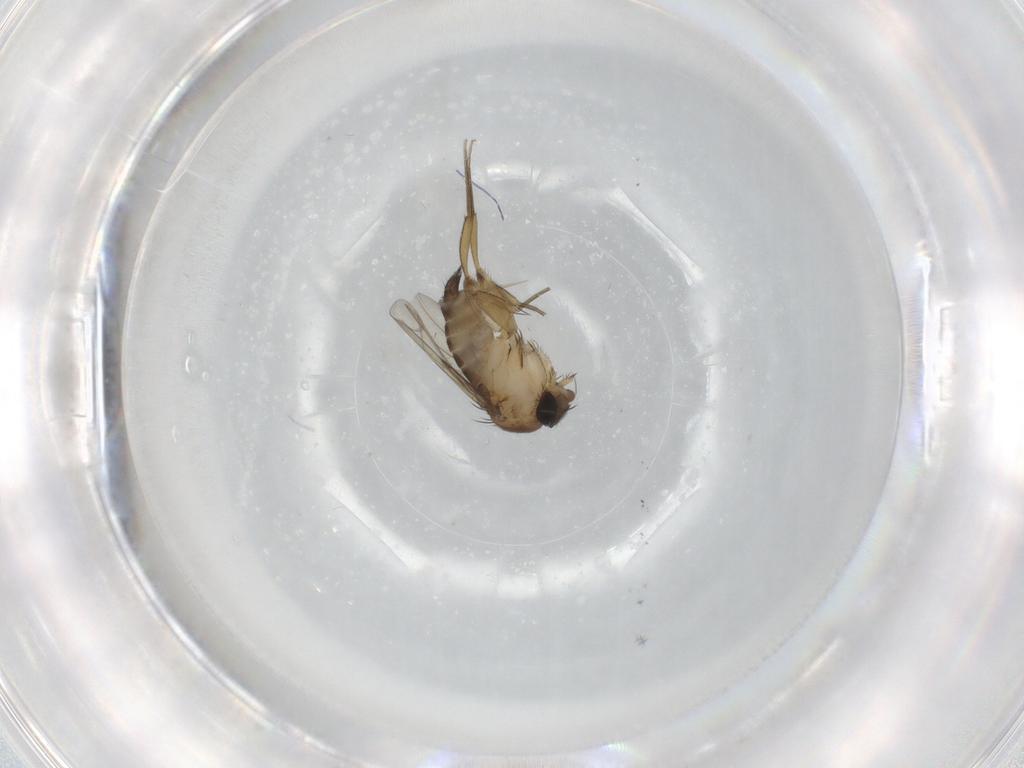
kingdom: Animalia
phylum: Arthropoda
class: Insecta
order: Diptera
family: Phoridae
